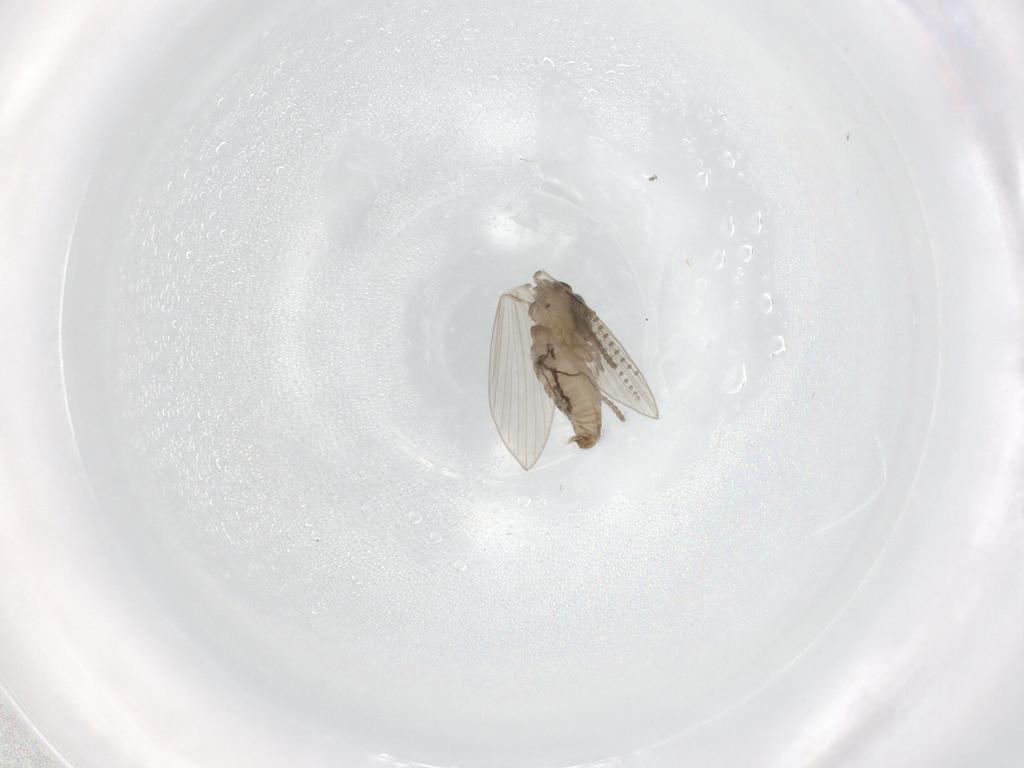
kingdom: Animalia
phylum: Arthropoda
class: Insecta
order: Diptera
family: Psychodidae
